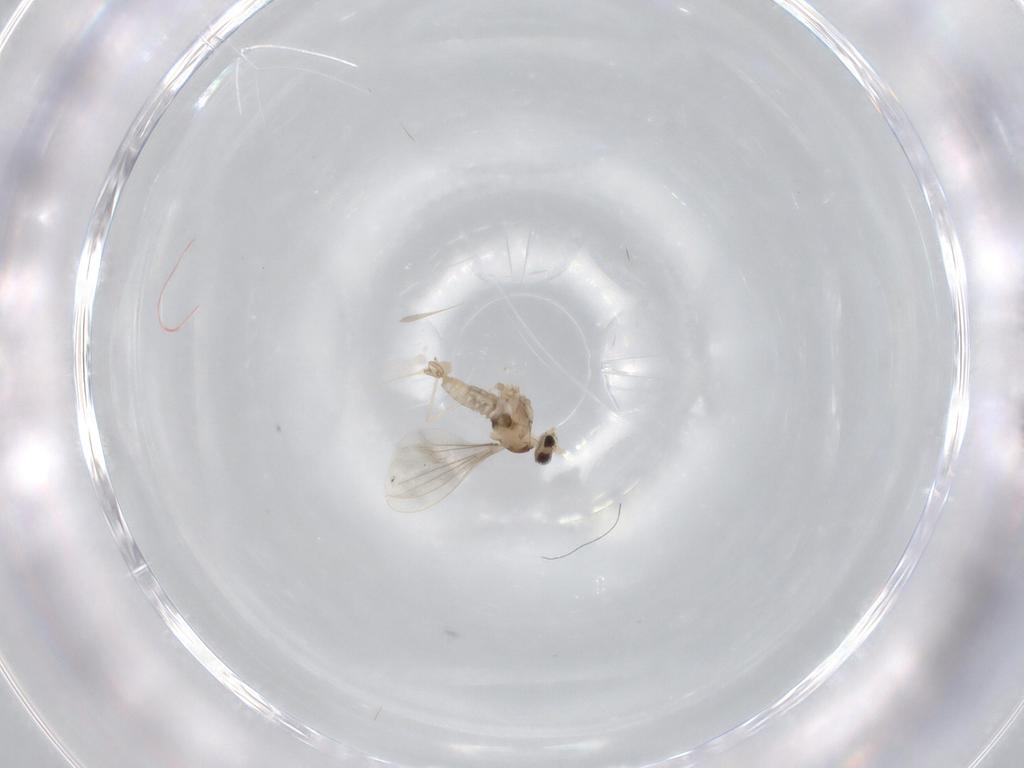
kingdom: Animalia
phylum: Arthropoda
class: Insecta
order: Diptera
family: Cecidomyiidae
